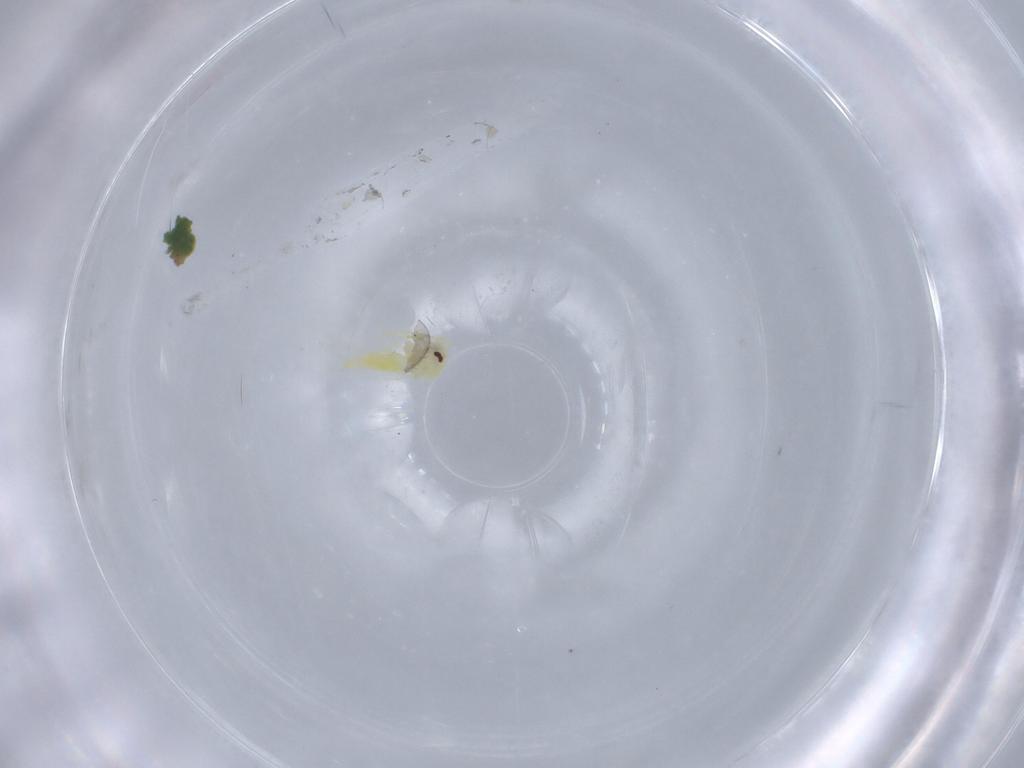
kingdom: Animalia
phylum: Arthropoda
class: Insecta
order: Hemiptera
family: Aleyrodidae
